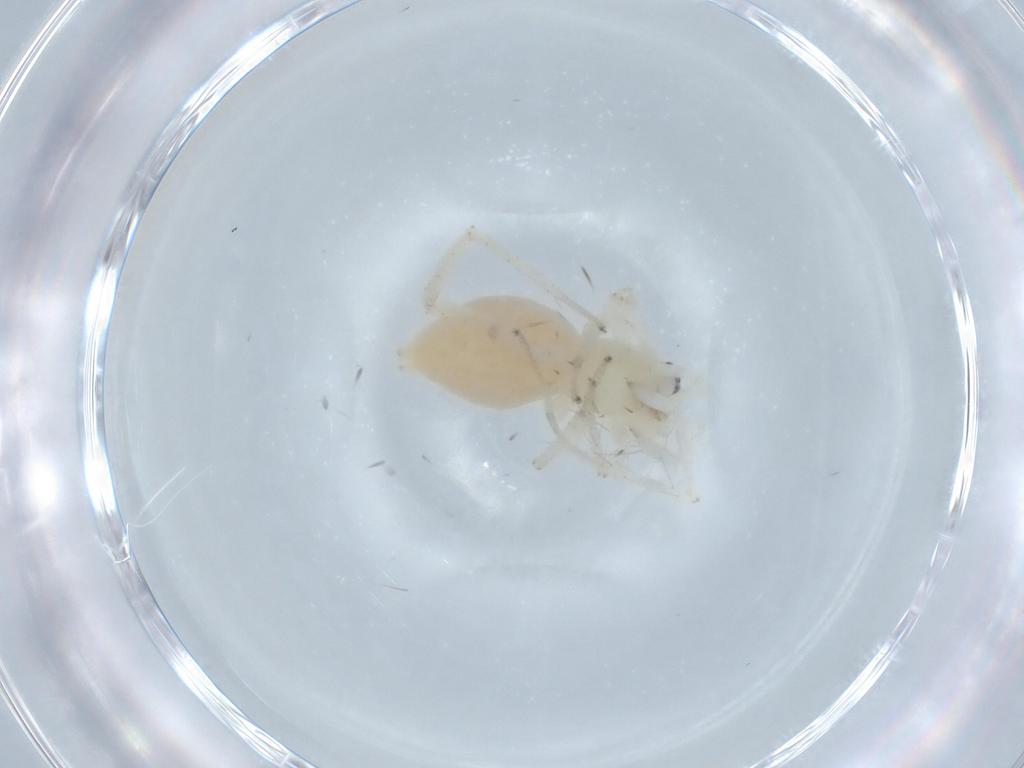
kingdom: Animalia
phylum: Arthropoda
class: Arachnida
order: Araneae
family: Anyphaenidae
